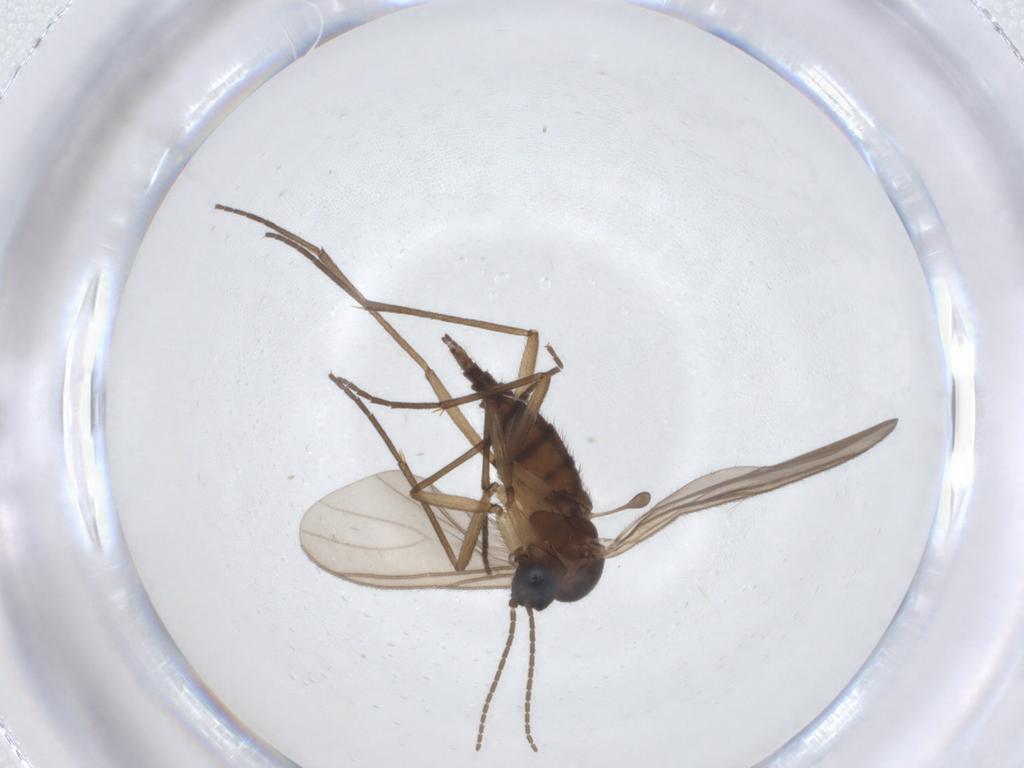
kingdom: Animalia
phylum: Arthropoda
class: Insecta
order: Diptera
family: Sciaridae
